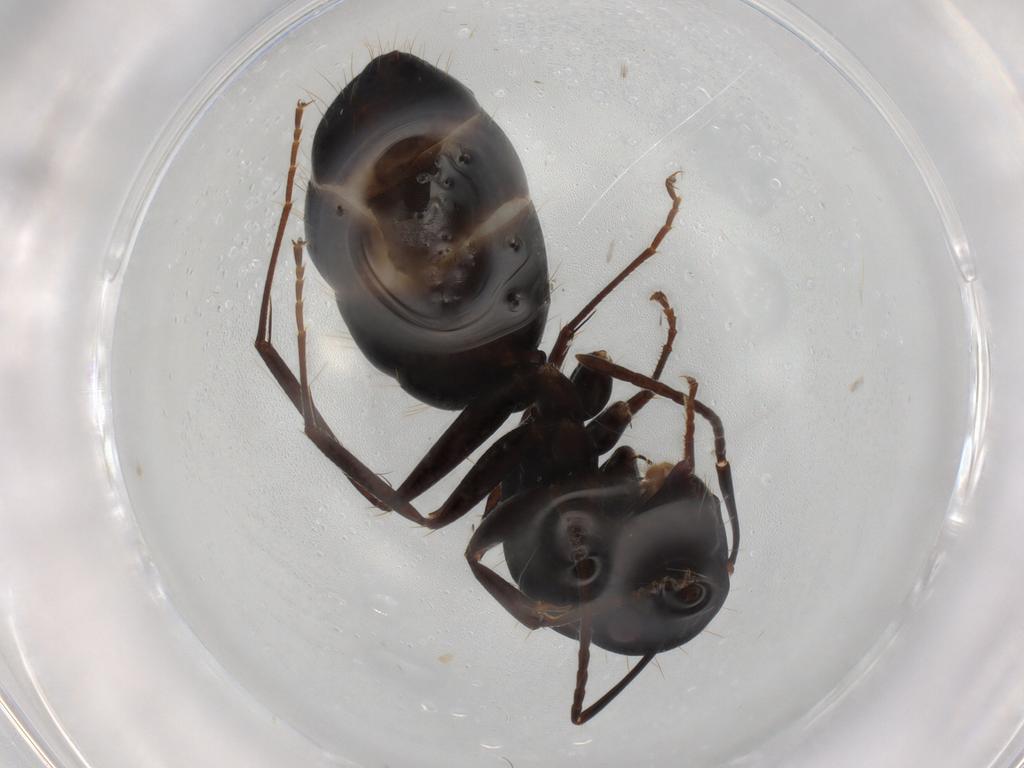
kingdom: Animalia
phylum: Arthropoda
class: Insecta
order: Hymenoptera
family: Formicidae
